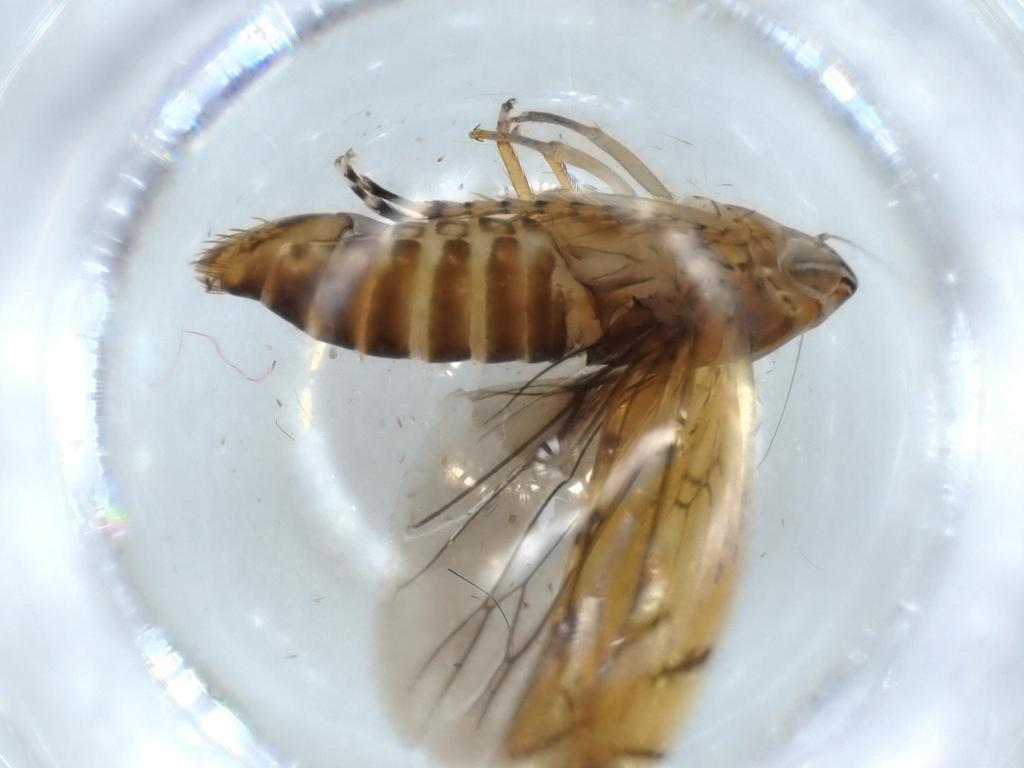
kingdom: Animalia
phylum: Arthropoda
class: Insecta
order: Hemiptera
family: Cicadellidae
